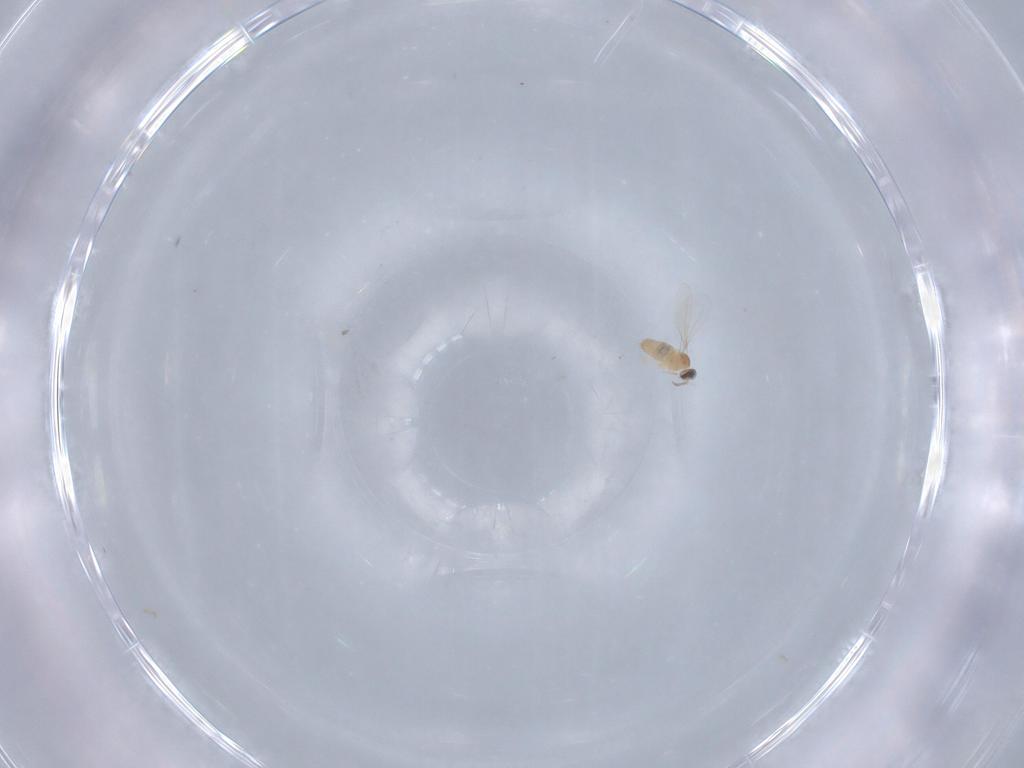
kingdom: Animalia
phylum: Arthropoda
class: Insecta
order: Diptera
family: Cecidomyiidae
